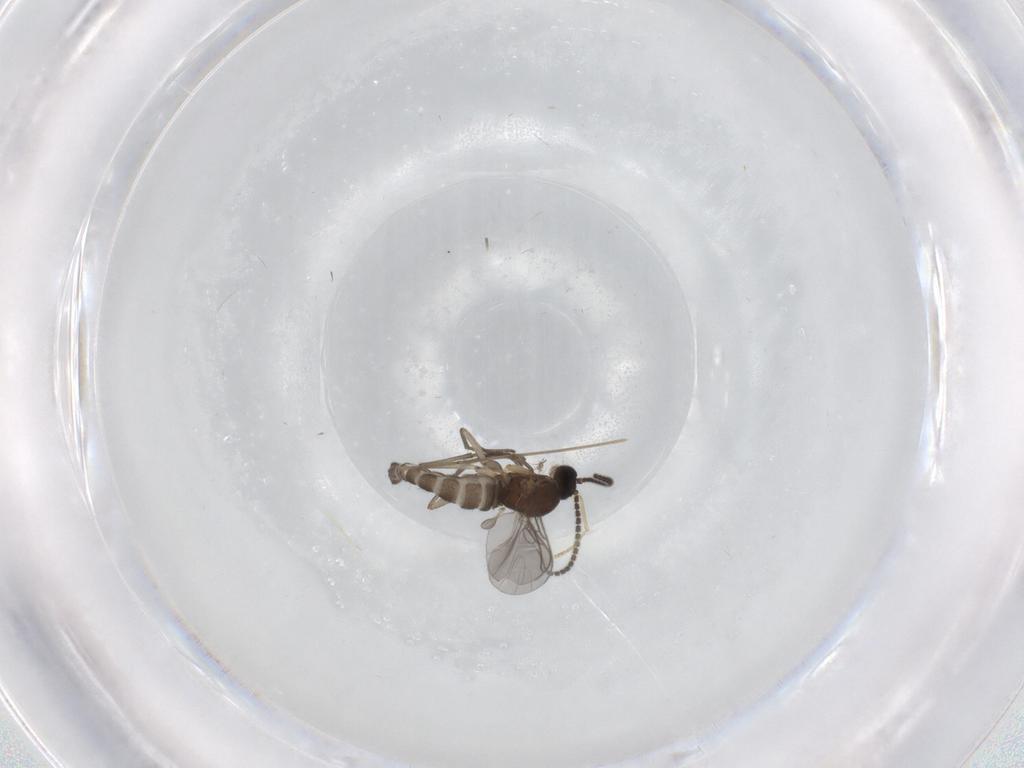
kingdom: Animalia
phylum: Arthropoda
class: Insecta
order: Diptera
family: Sciaridae
